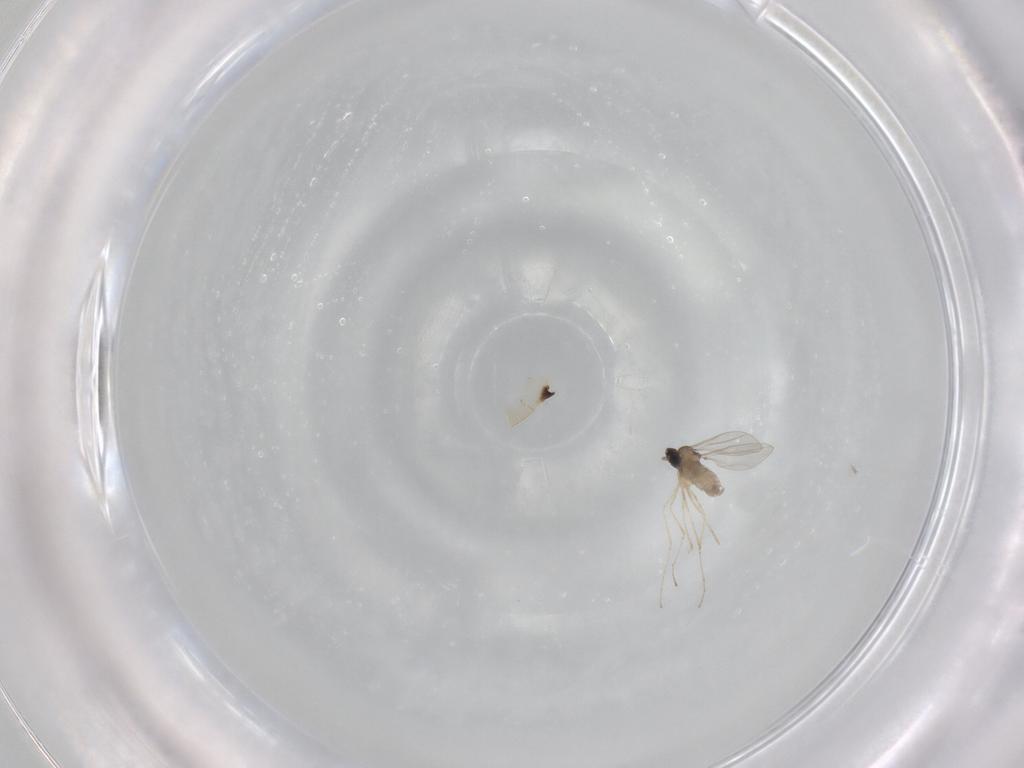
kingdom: Animalia
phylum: Arthropoda
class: Insecta
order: Diptera
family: Cecidomyiidae
